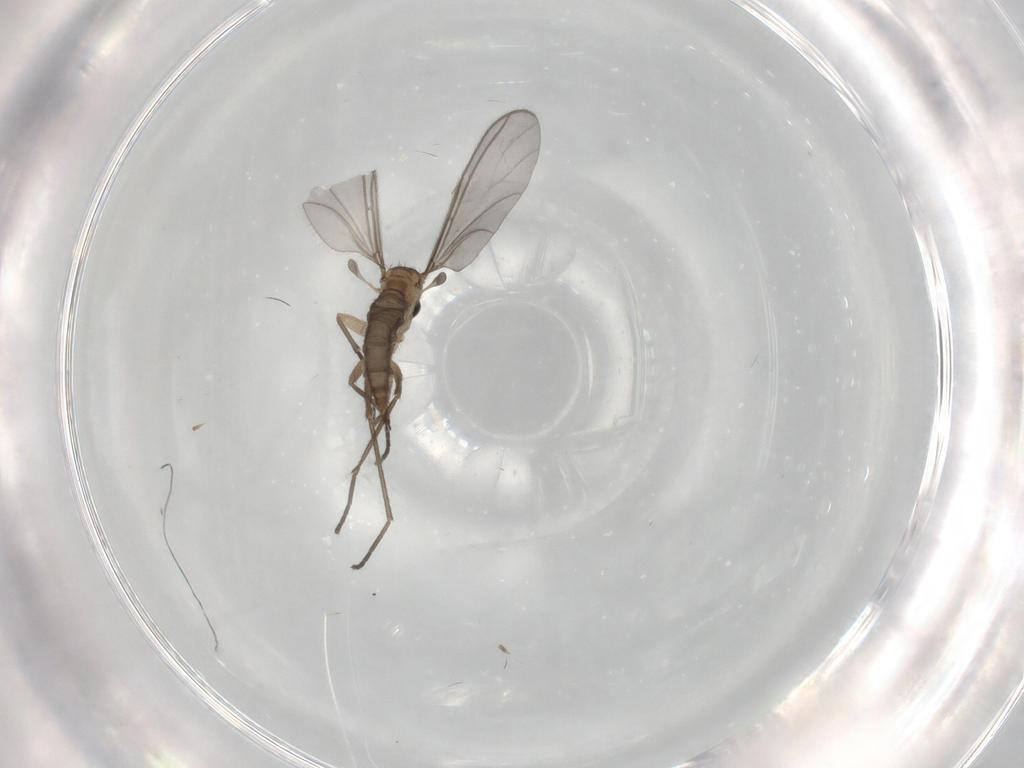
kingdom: Animalia
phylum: Arthropoda
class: Insecta
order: Diptera
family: Sciaridae
